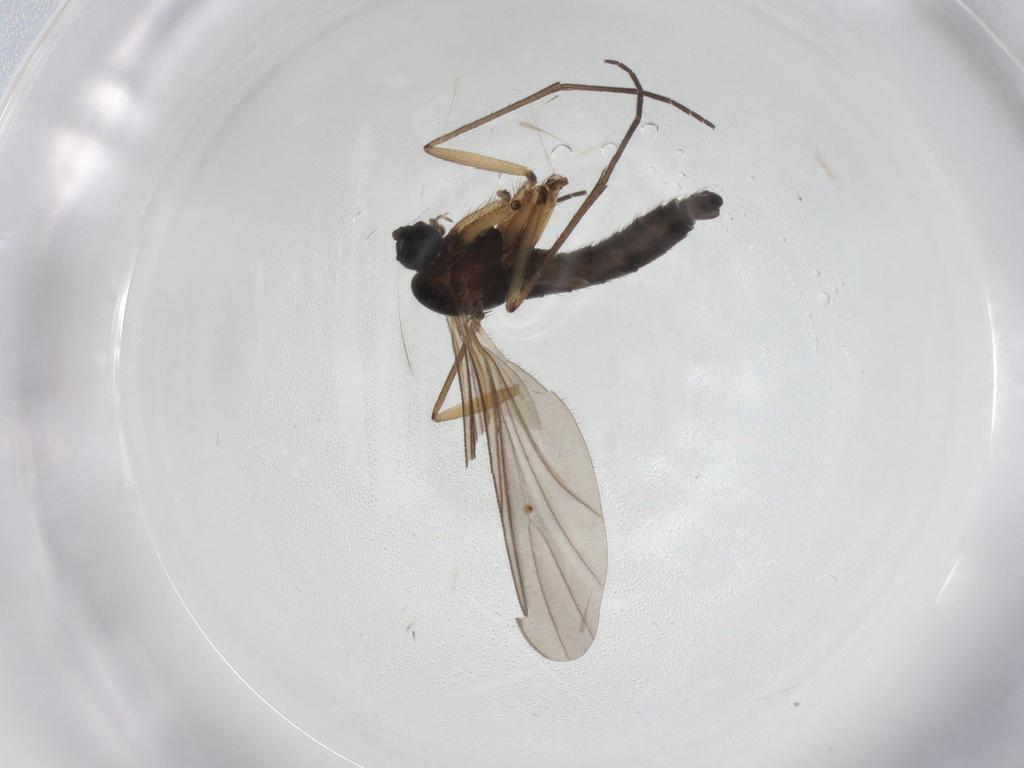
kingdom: Animalia
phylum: Arthropoda
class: Insecta
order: Diptera
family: Sciaridae
